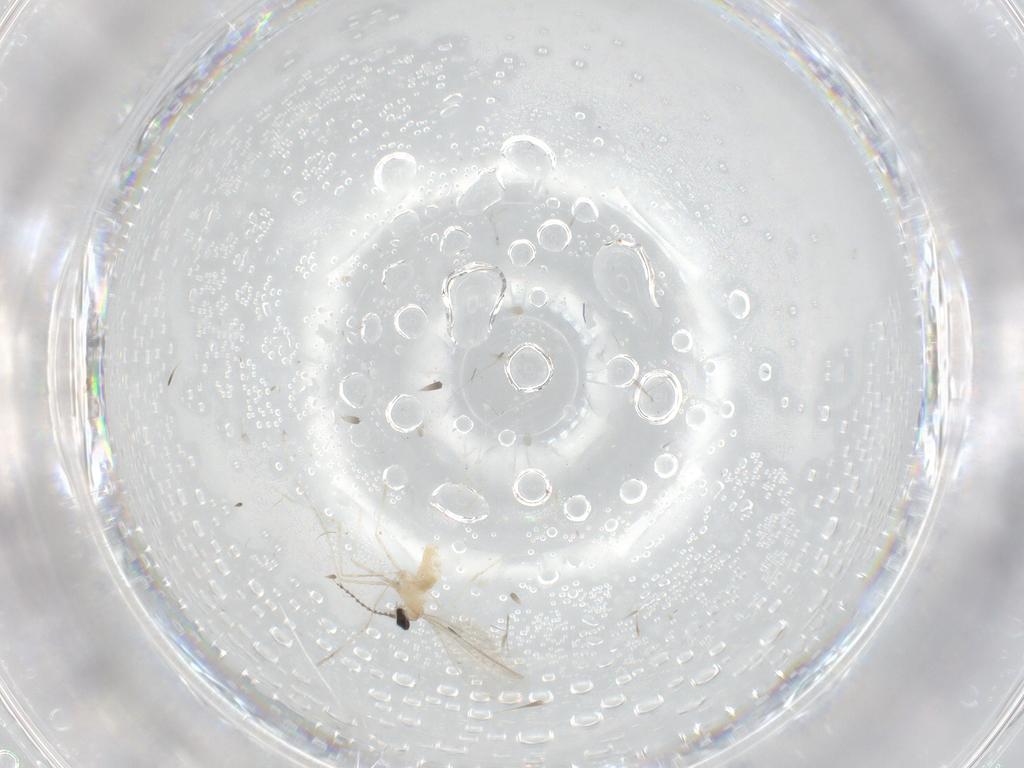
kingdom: Animalia
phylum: Arthropoda
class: Insecta
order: Diptera
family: Cecidomyiidae
